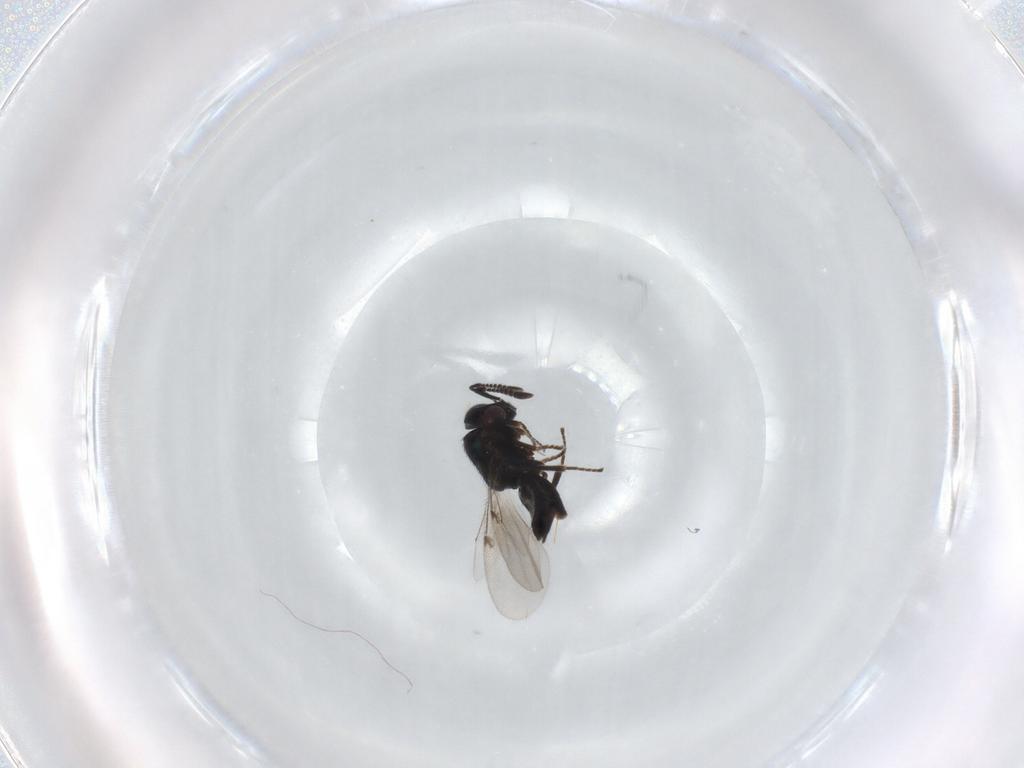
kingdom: Animalia
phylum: Arthropoda
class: Insecta
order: Hymenoptera
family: Encyrtidae
